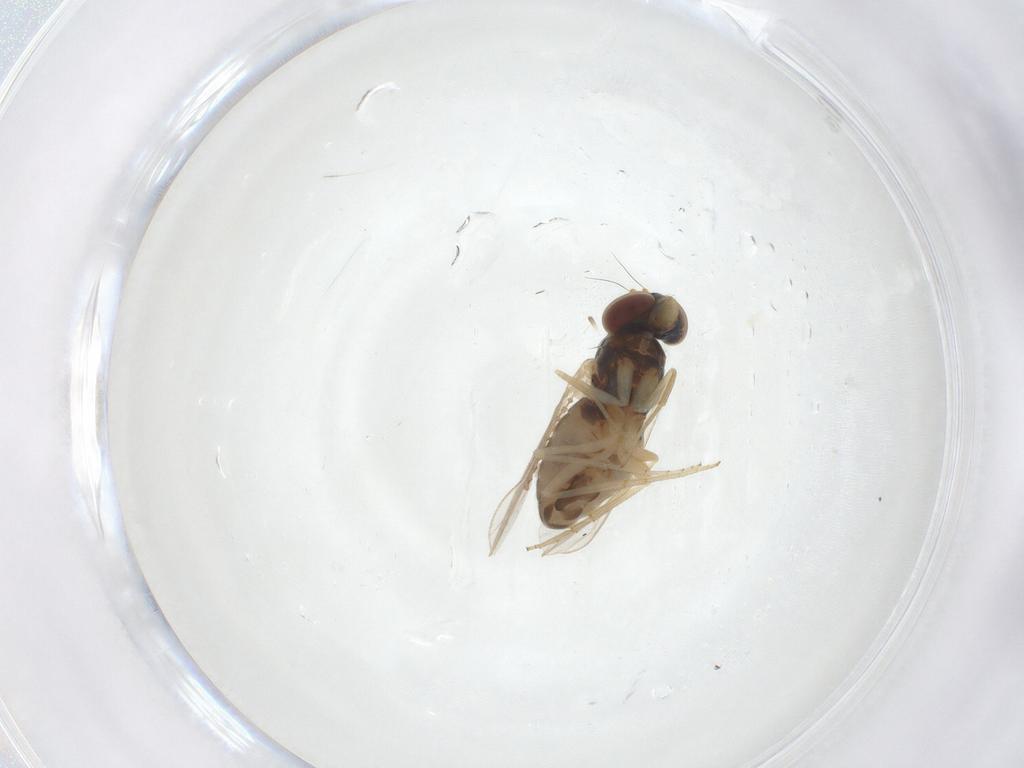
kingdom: Animalia
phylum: Arthropoda
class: Insecta
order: Diptera
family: Dolichopodidae
